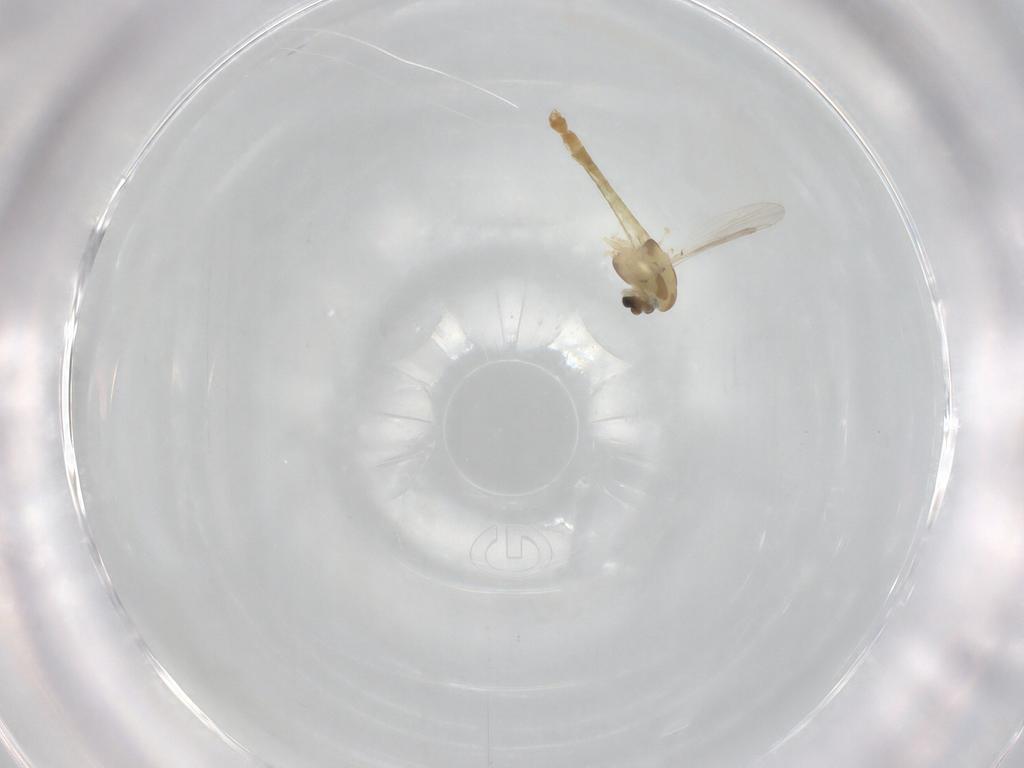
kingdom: Animalia
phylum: Arthropoda
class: Insecta
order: Diptera
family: Chironomidae
